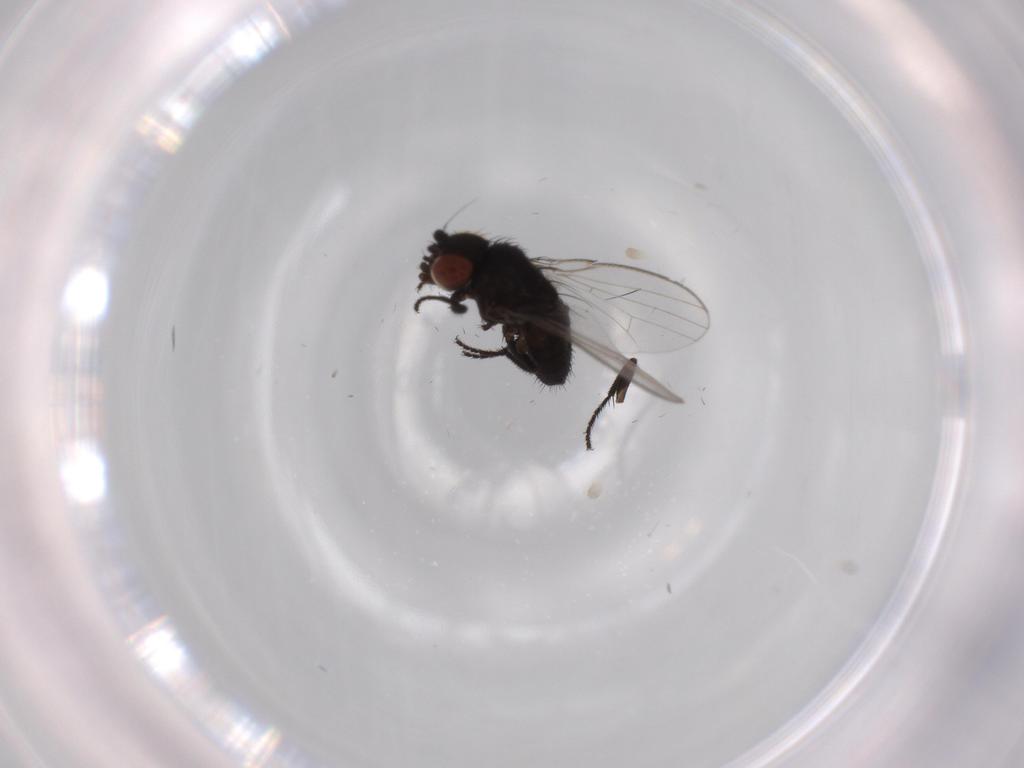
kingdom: Animalia
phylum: Arthropoda
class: Insecta
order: Diptera
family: Milichiidae
